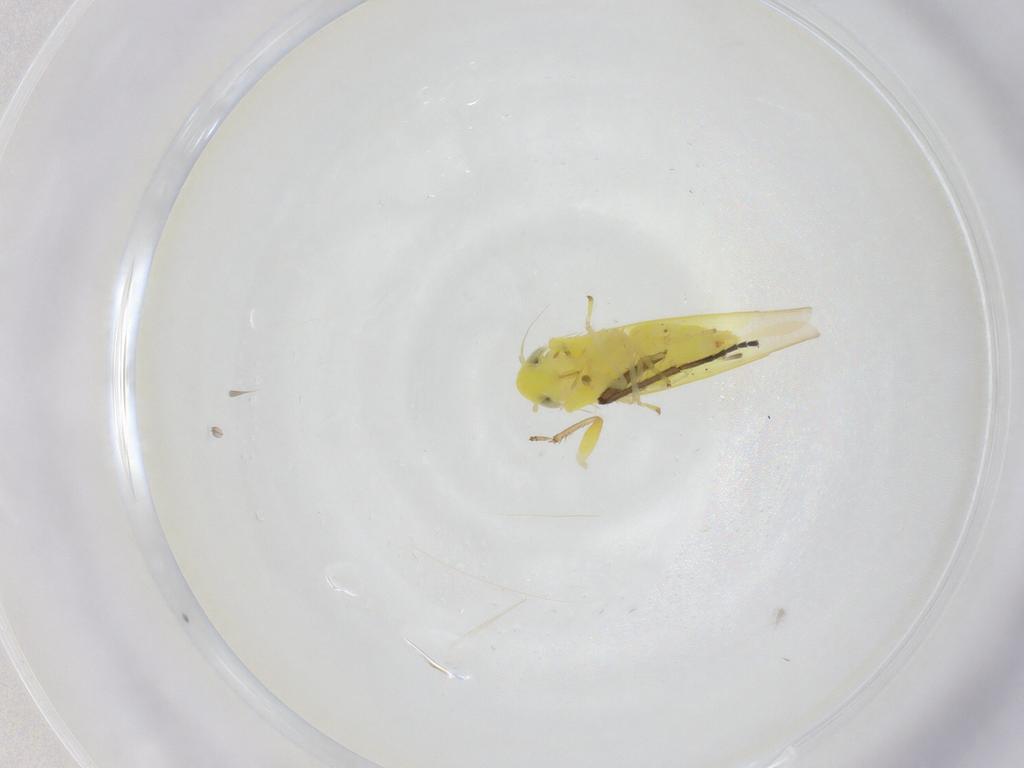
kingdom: Animalia
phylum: Arthropoda
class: Insecta
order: Hemiptera
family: Cicadellidae
